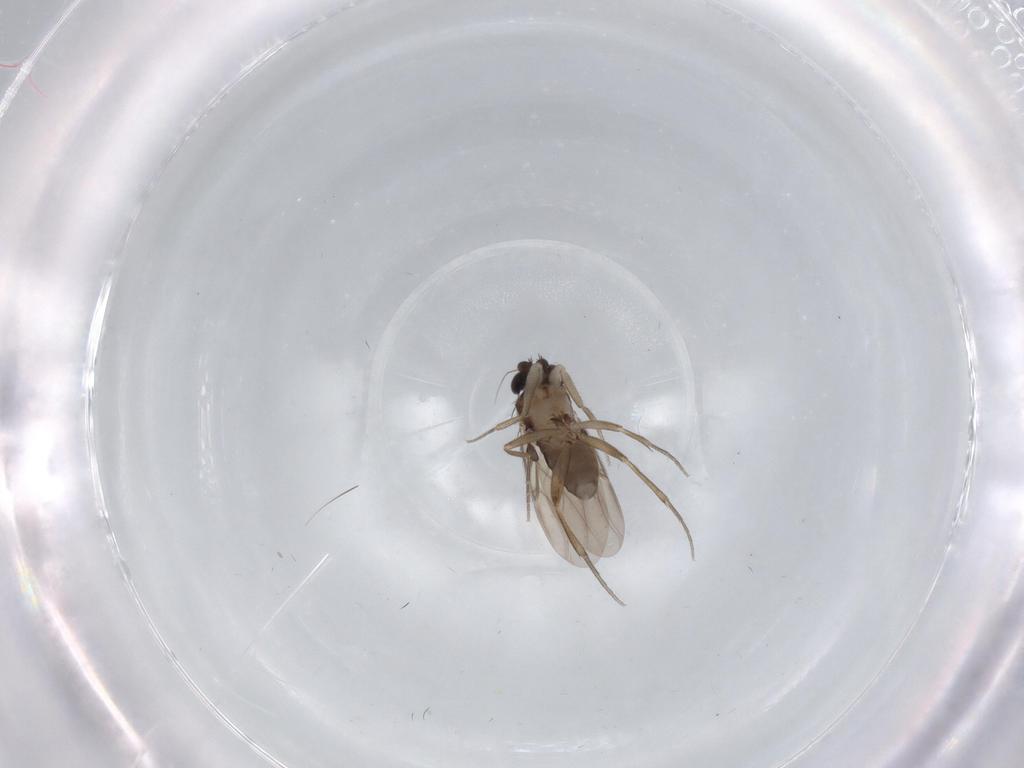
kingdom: Animalia
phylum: Arthropoda
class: Insecta
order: Diptera
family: Phoridae
